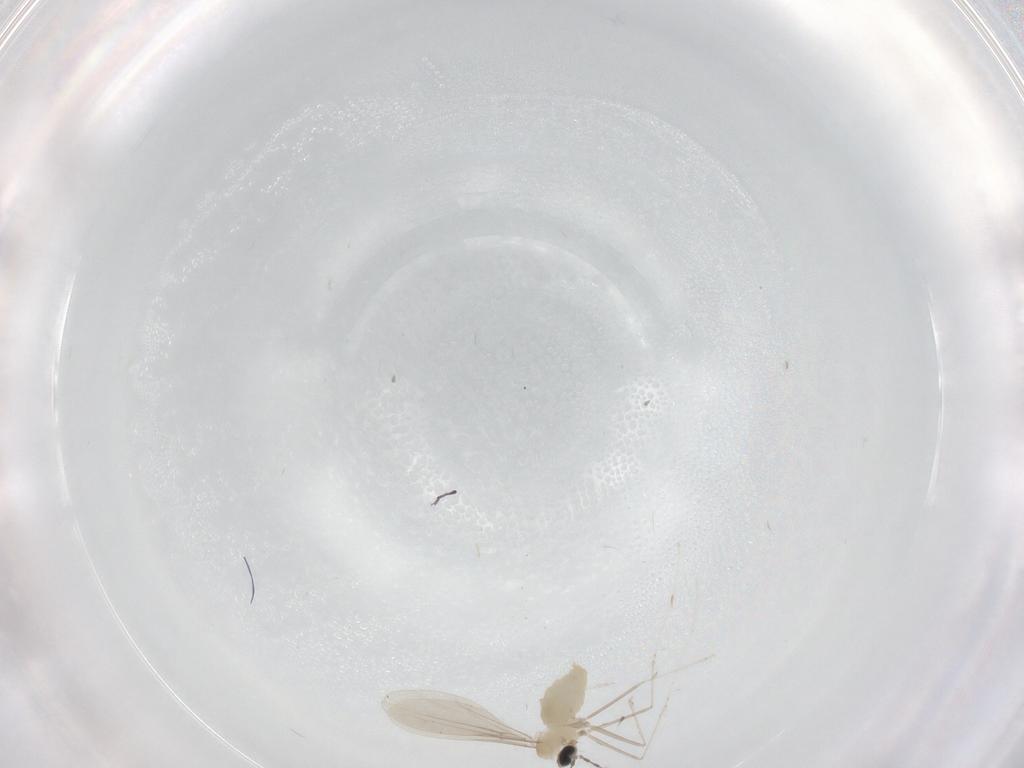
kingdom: Animalia
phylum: Arthropoda
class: Insecta
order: Diptera
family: Cecidomyiidae
